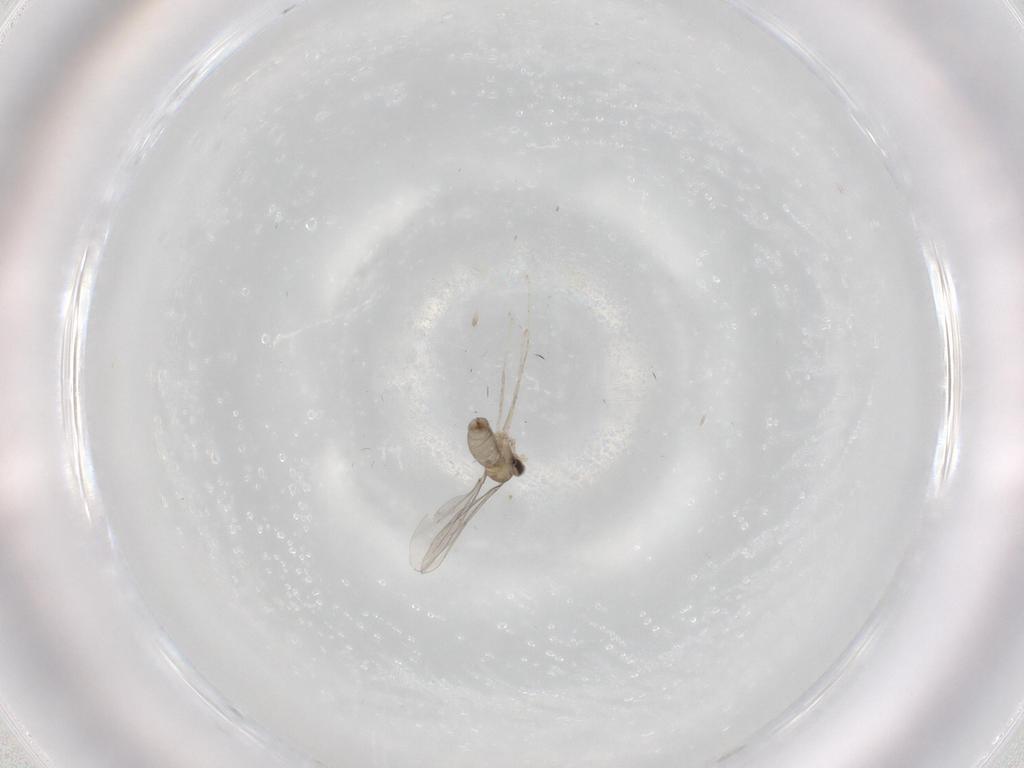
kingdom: Animalia
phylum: Arthropoda
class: Insecta
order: Diptera
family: Cecidomyiidae
